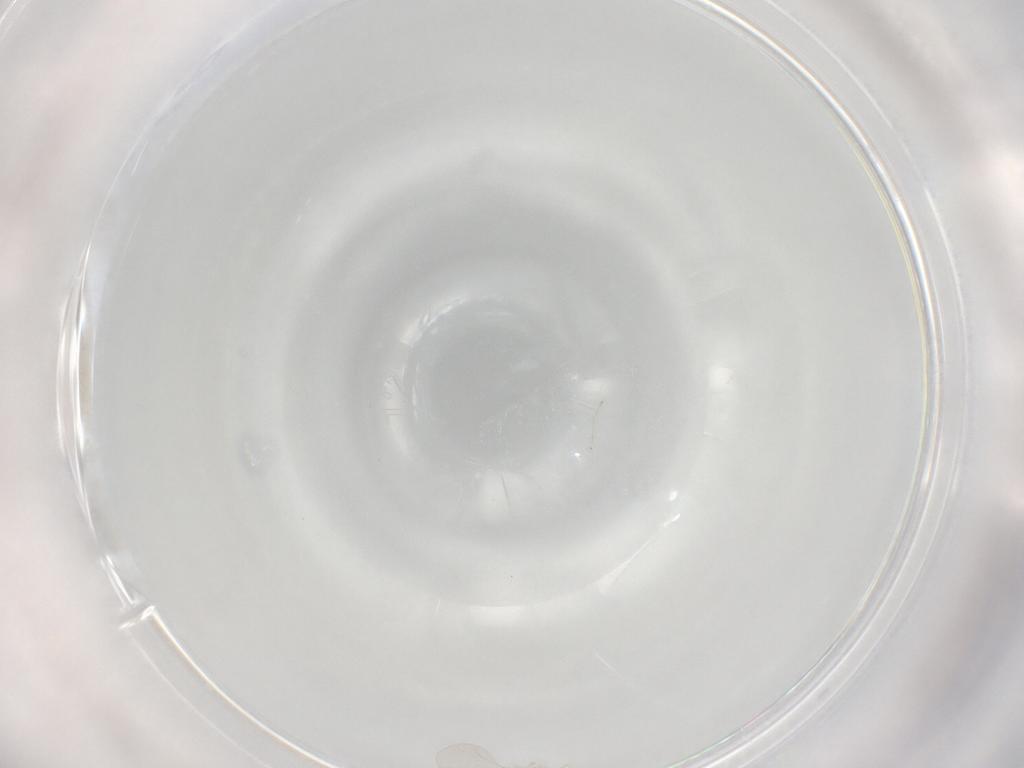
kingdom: Animalia
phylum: Arthropoda
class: Insecta
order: Diptera
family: Cecidomyiidae
